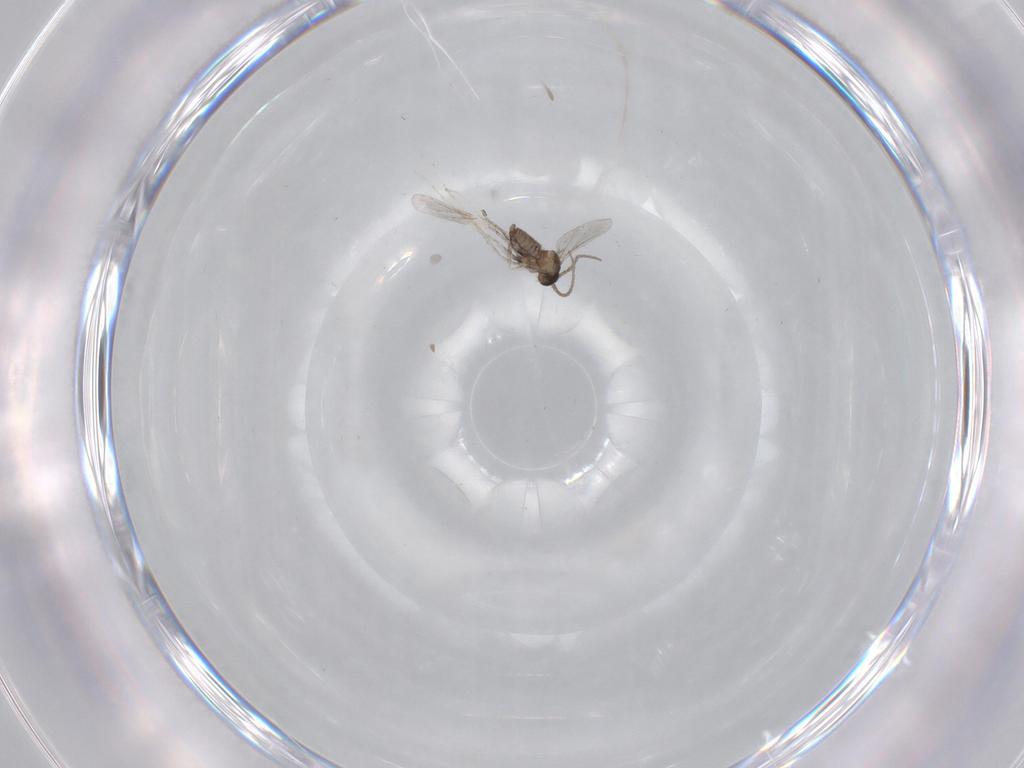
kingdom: Animalia
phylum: Arthropoda
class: Insecta
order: Diptera
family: Cecidomyiidae
